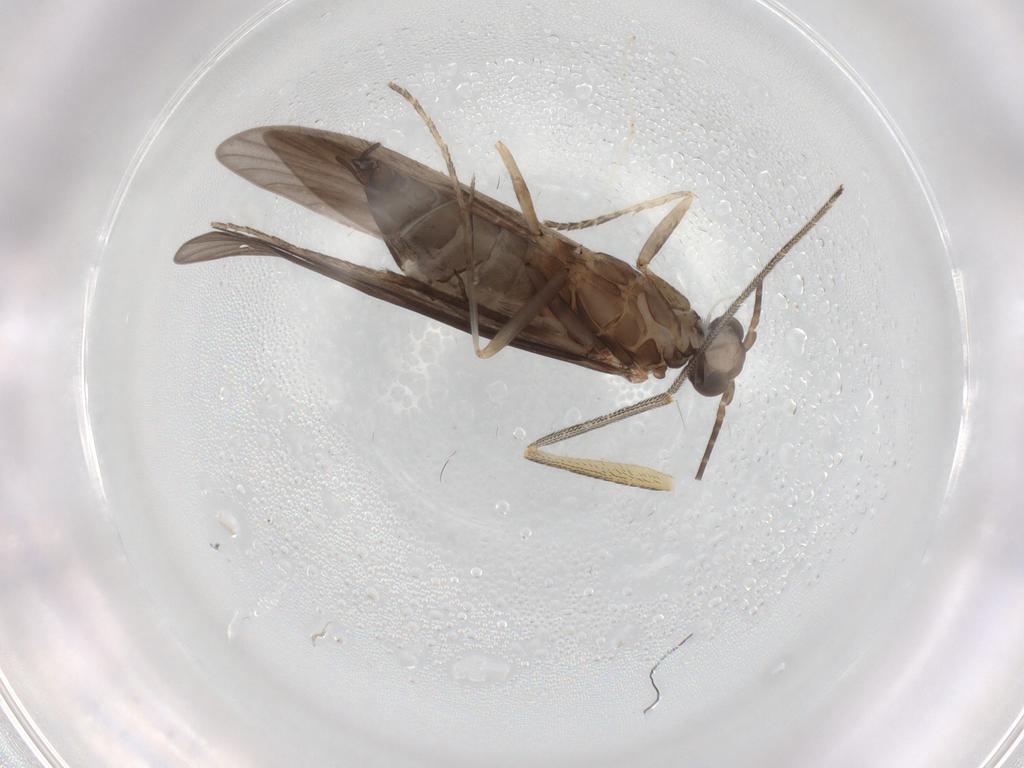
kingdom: Animalia
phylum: Arthropoda
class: Insecta
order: Trichoptera
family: Xiphocentronidae
